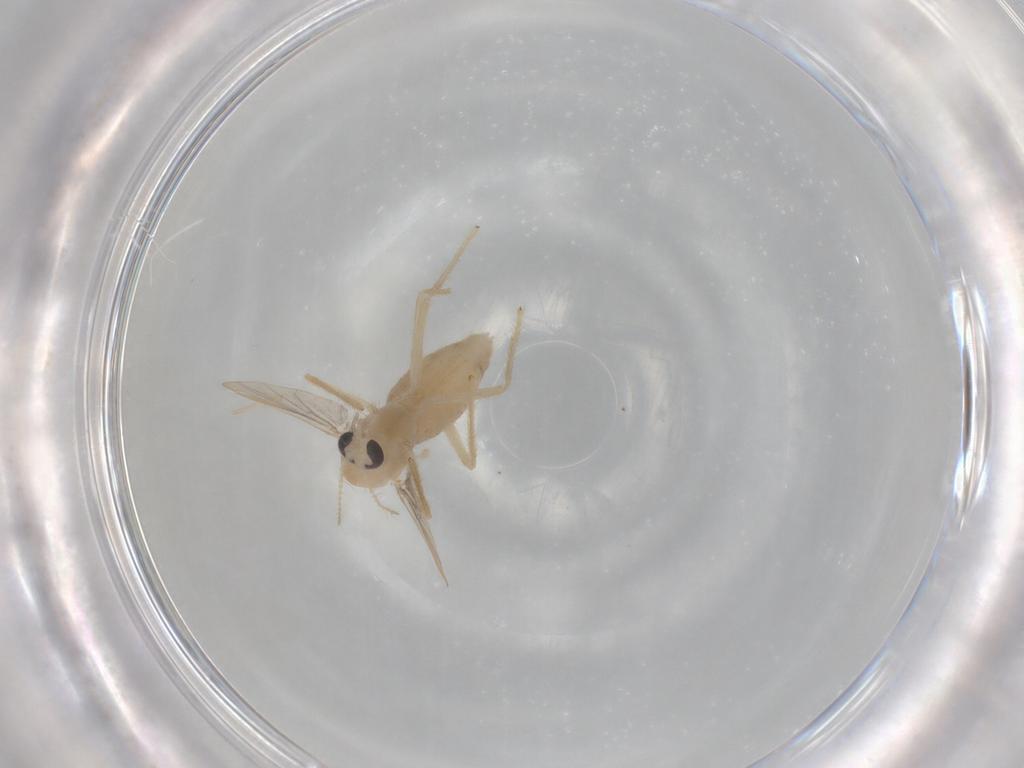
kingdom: Animalia
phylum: Arthropoda
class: Insecta
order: Diptera
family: Chironomidae
